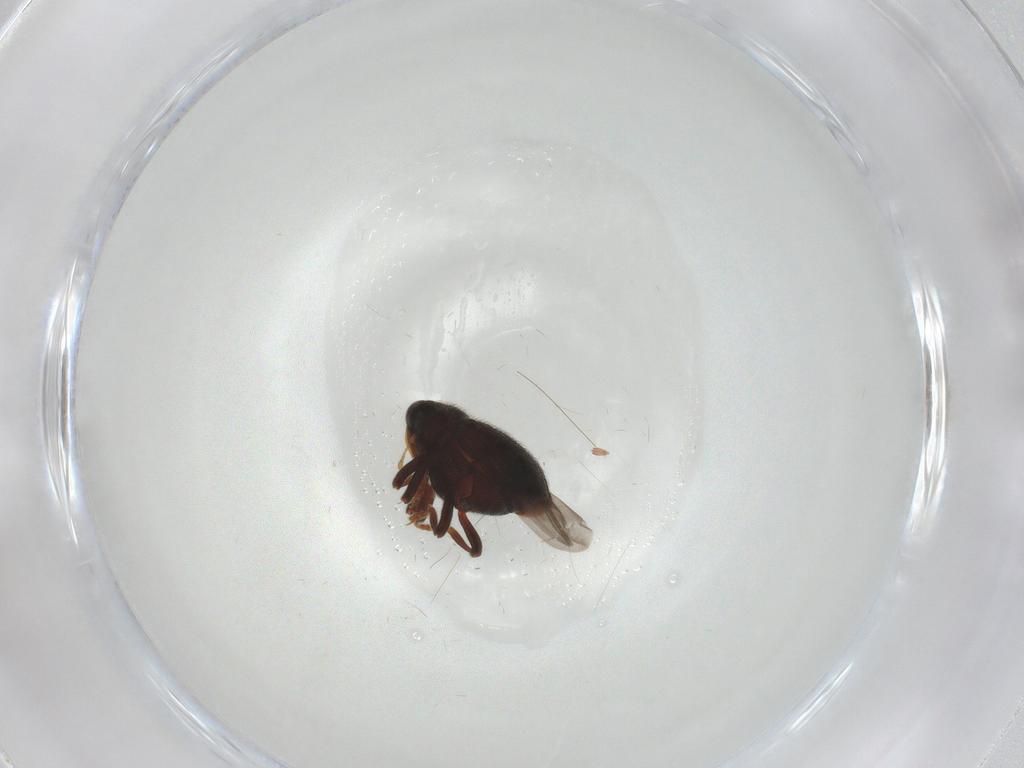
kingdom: Animalia
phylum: Arthropoda
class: Insecta
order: Coleoptera
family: Curculionidae
